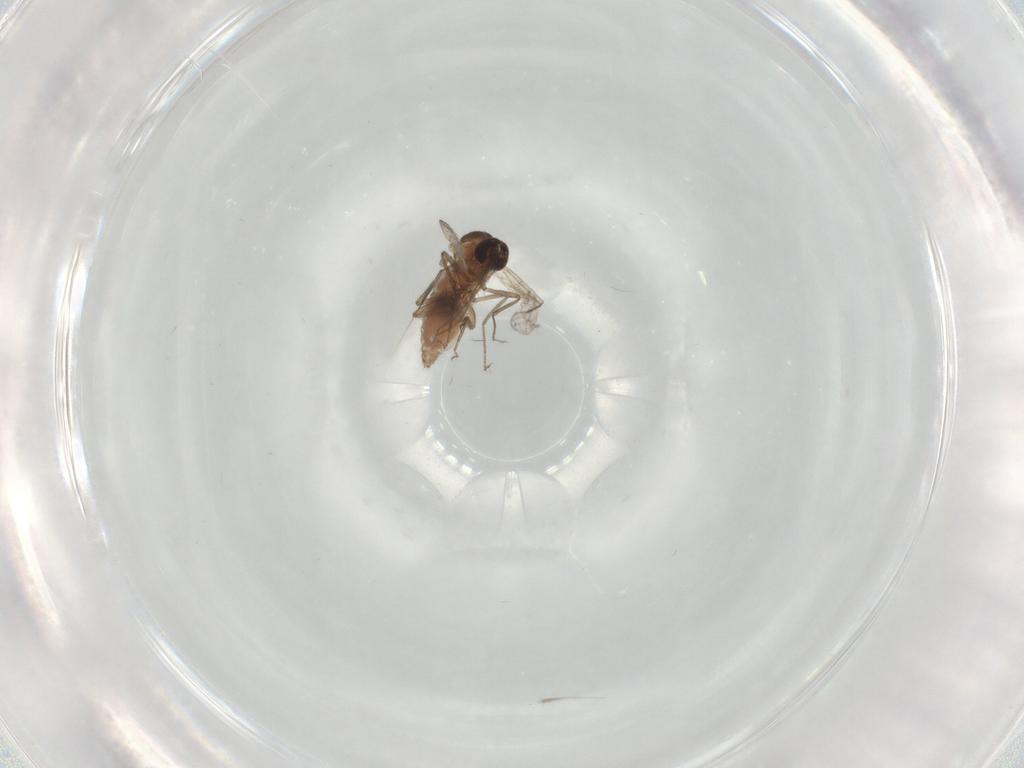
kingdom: Animalia
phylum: Arthropoda
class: Insecta
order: Diptera
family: Ceratopogonidae
